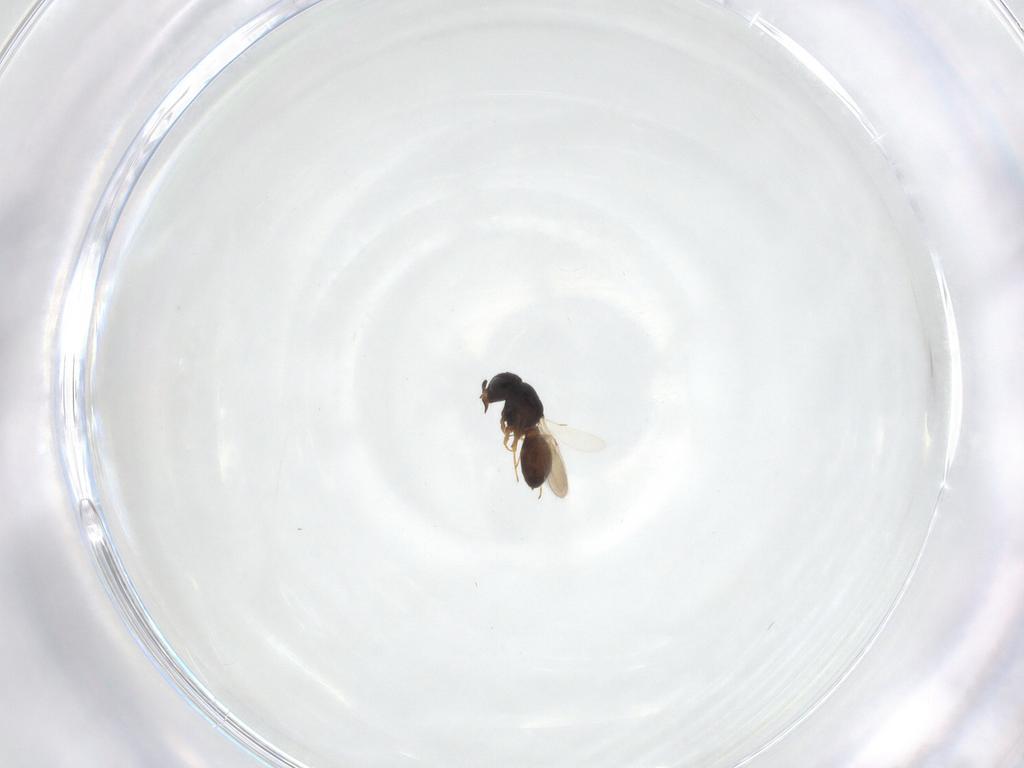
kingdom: Animalia
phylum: Arthropoda
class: Insecta
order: Hymenoptera
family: Scelionidae
